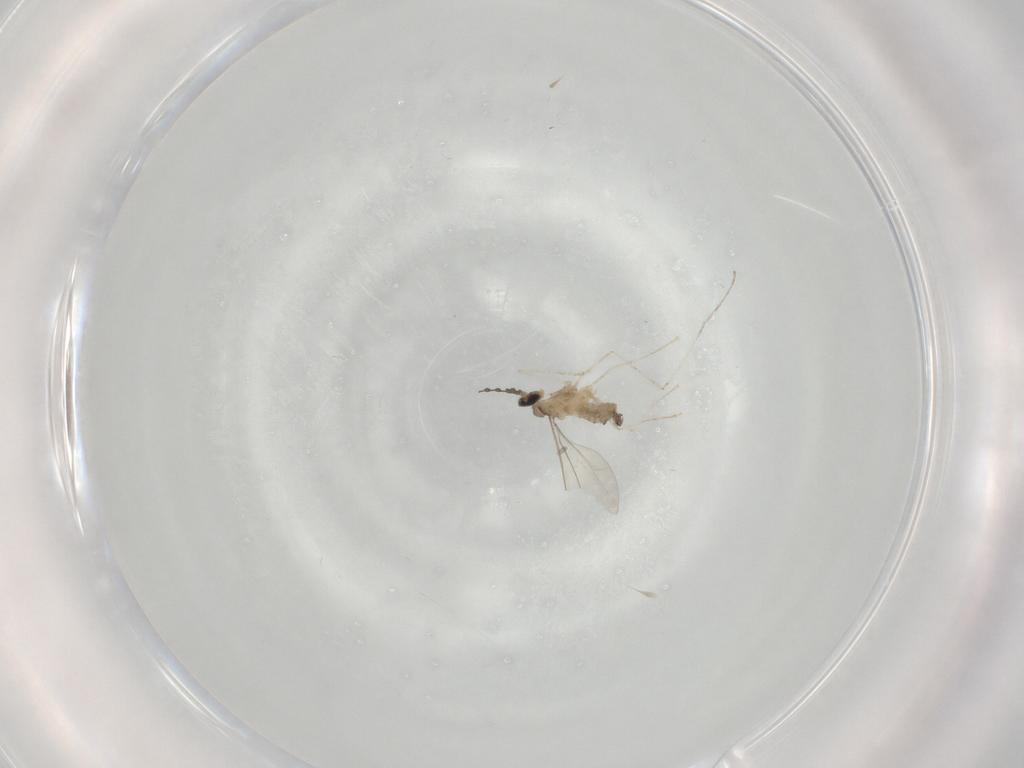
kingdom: Animalia
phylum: Arthropoda
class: Insecta
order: Diptera
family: Cecidomyiidae
